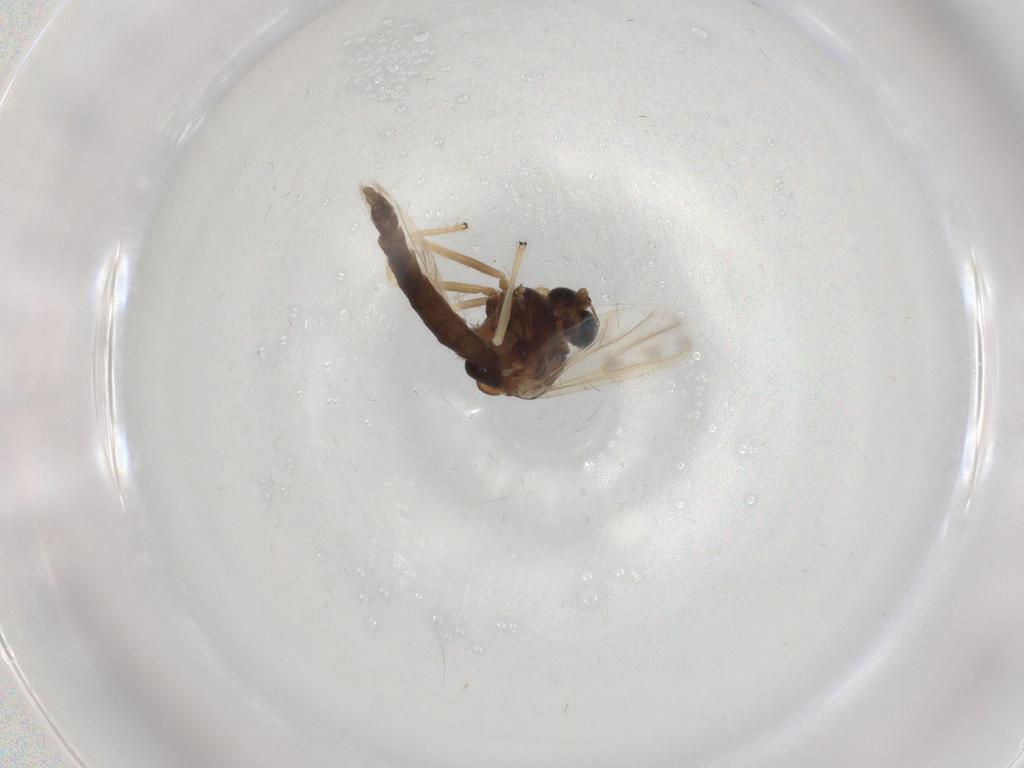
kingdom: Animalia
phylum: Arthropoda
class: Insecta
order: Diptera
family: Chironomidae
